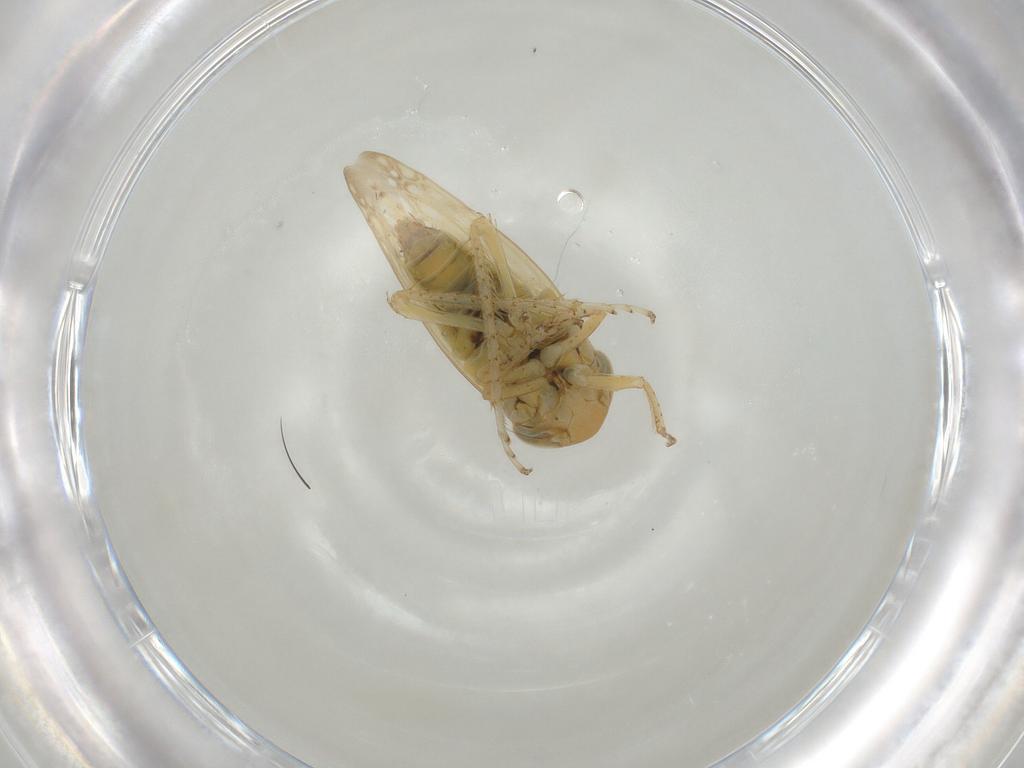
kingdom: Animalia
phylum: Arthropoda
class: Insecta
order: Hemiptera
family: Cicadellidae
